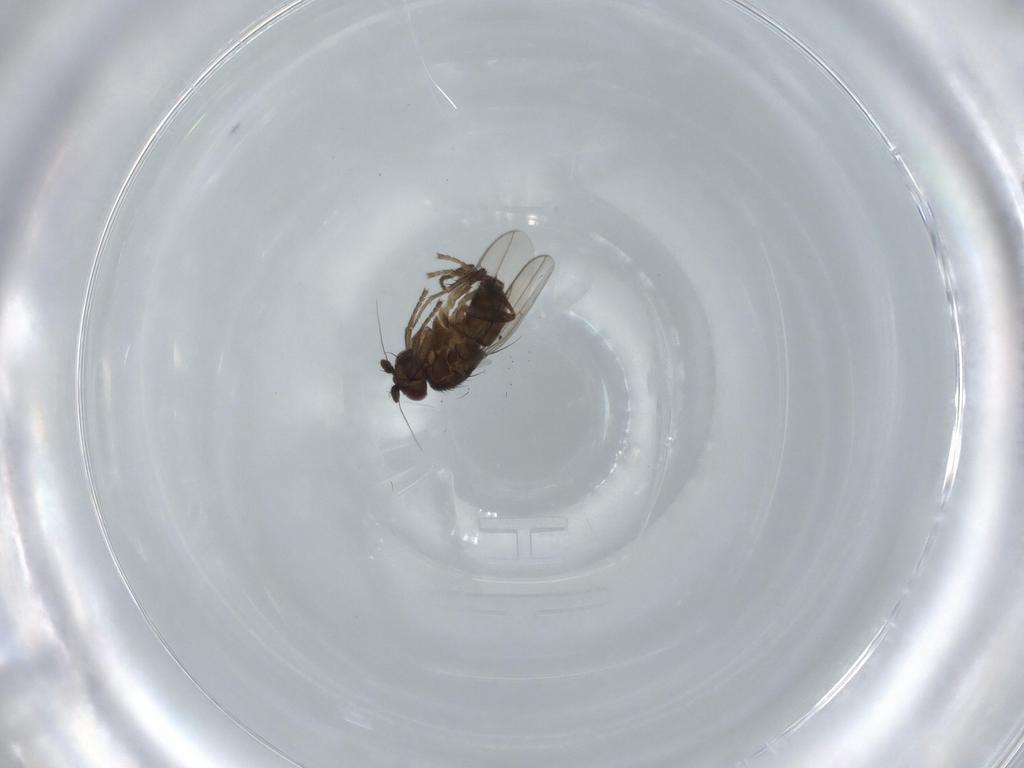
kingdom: Animalia
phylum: Arthropoda
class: Insecta
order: Diptera
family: Sphaeroceridae
